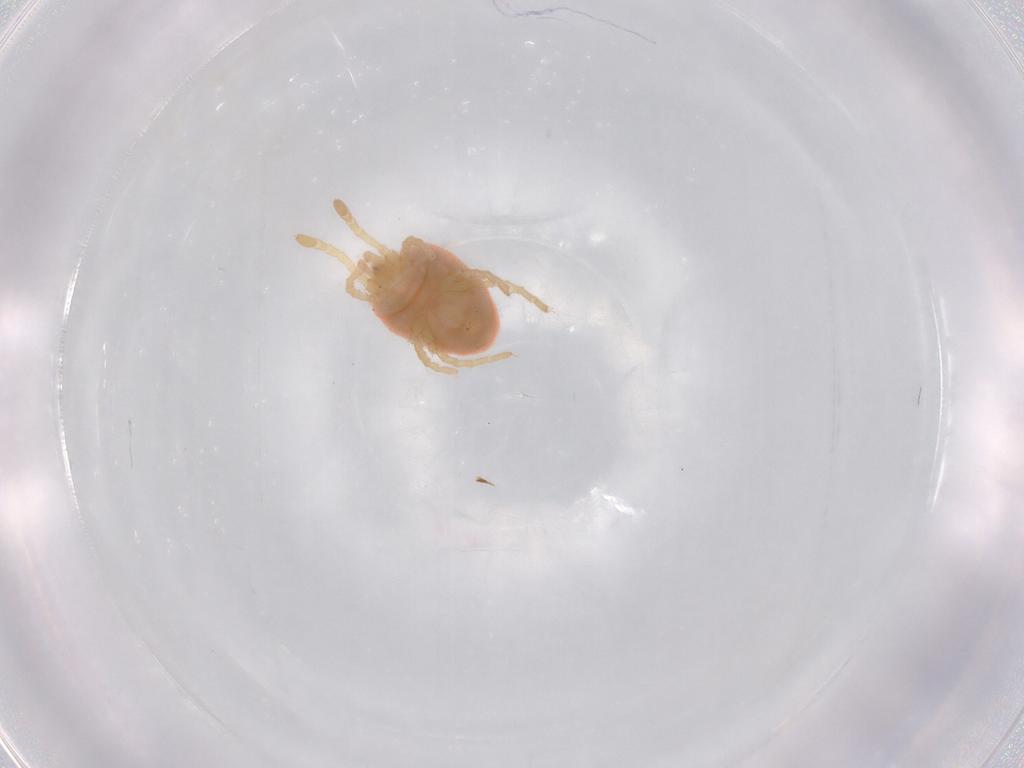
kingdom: Animalia
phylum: Arthropoda
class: Arachnida
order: Trombidiformes
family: Microtrombidiidae
